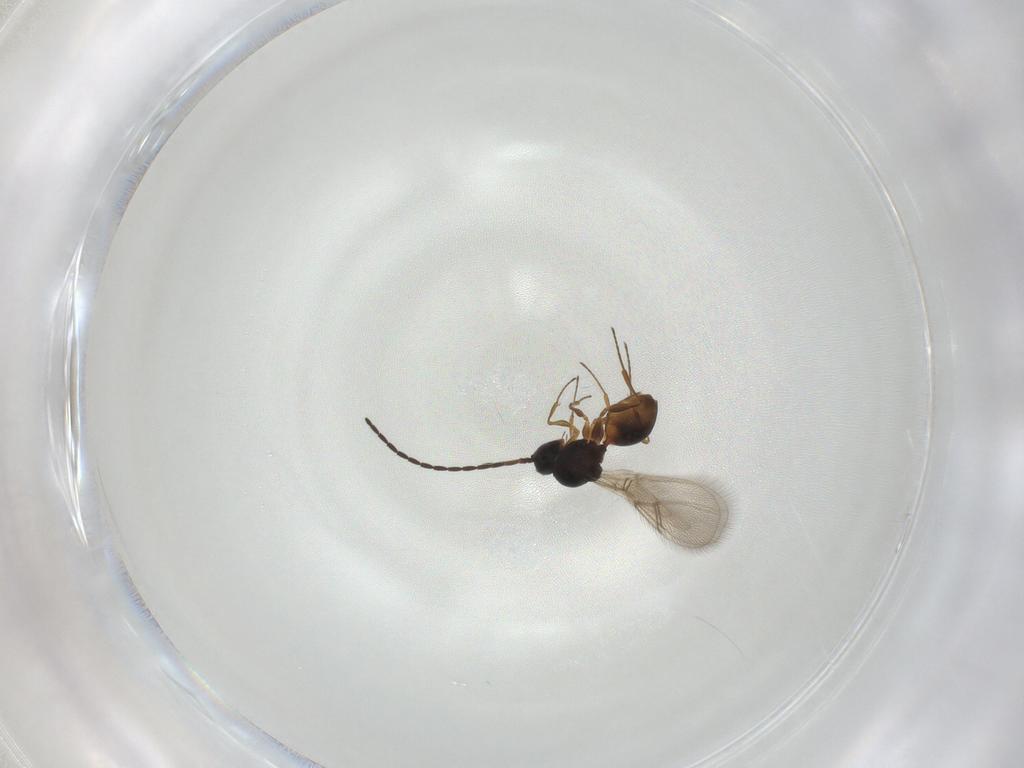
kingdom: Animalia
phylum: Arthropoda
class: Insecta
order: Hymenoptera
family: Figitidae
